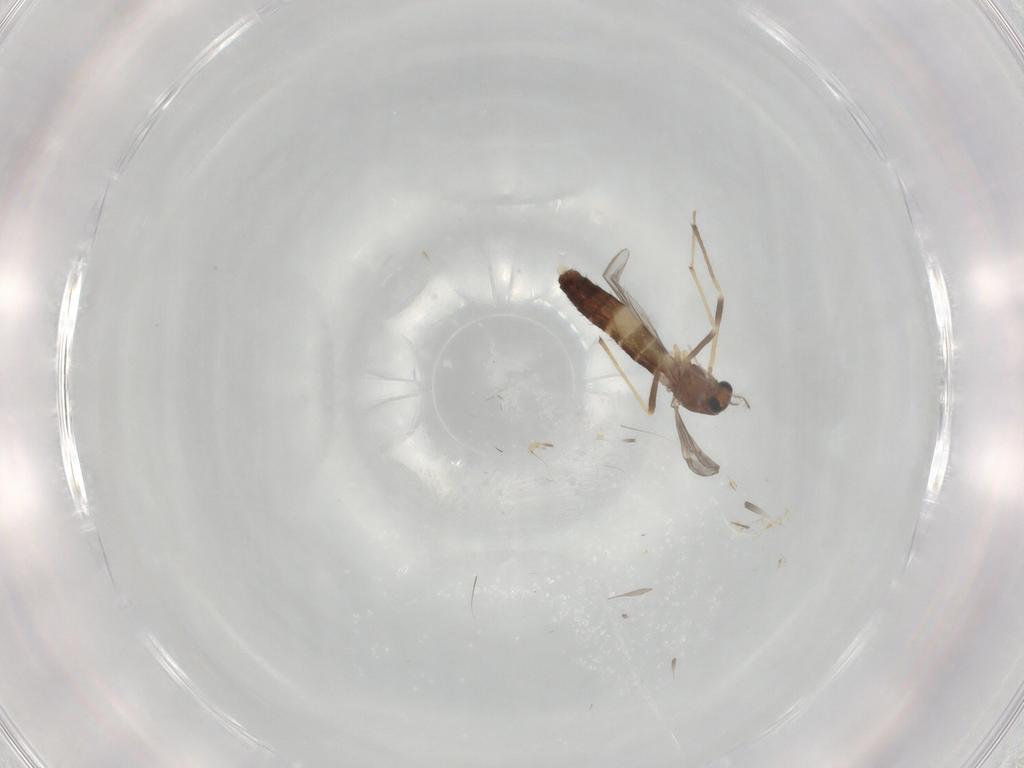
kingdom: Animalia
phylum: Arthropoda
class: Insecta
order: Diptera
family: Chironomidae
